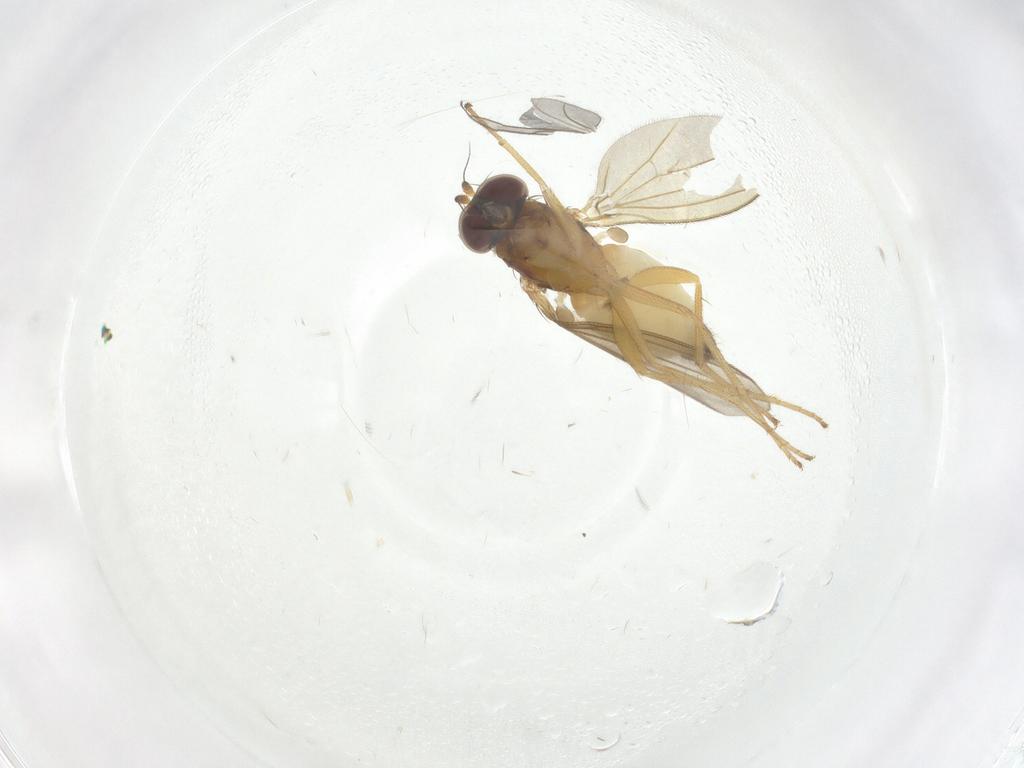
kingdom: Animalia
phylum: Arthropoda
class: Insecta
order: Diptera
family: Dolichopodidae
